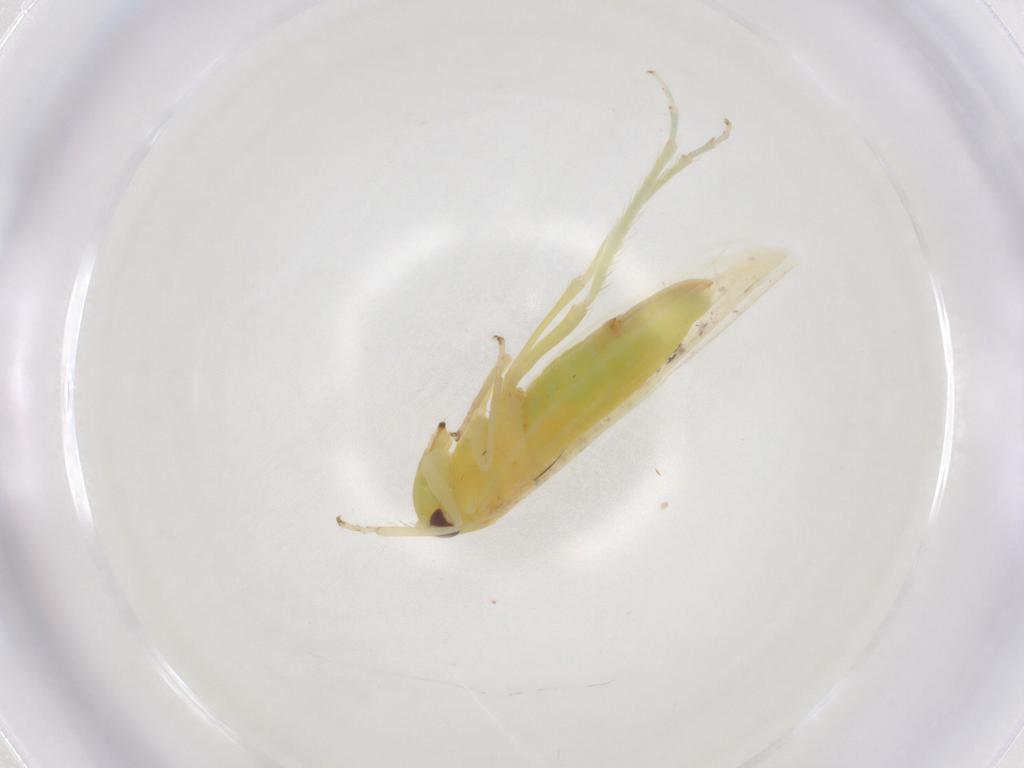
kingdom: Animalia
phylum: Arthropoda
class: Insecta
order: Hemiptera
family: Cicadellidae
